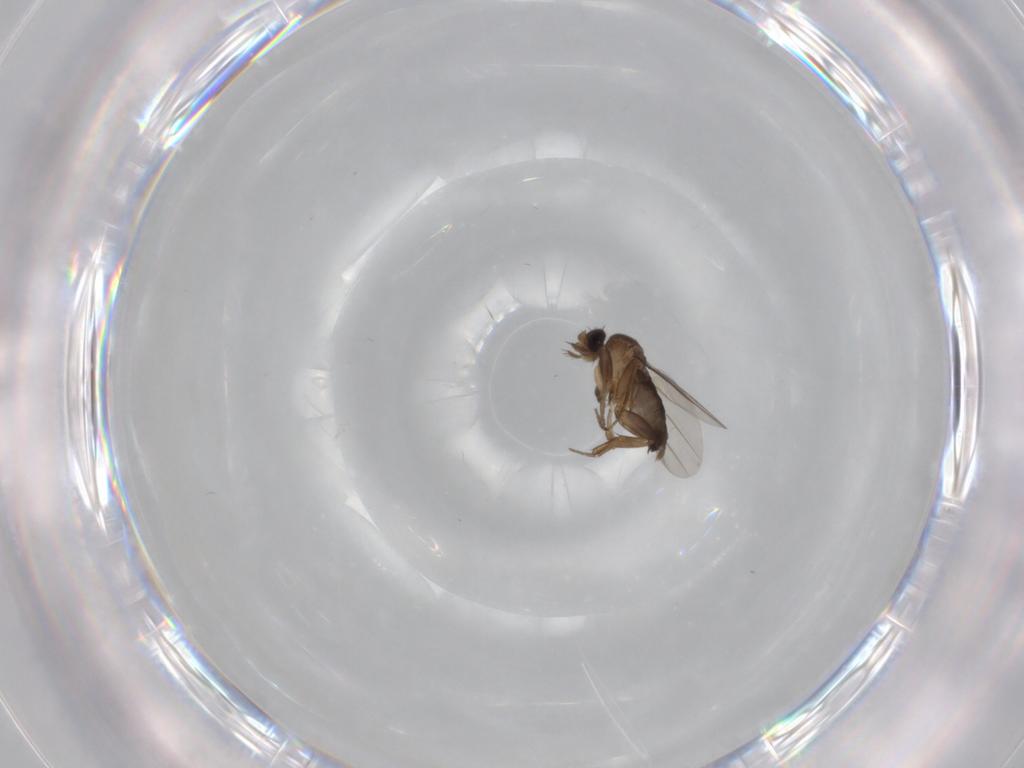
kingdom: Animalia
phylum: Arthropoda
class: Insecta
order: Diptera
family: Phoridae
